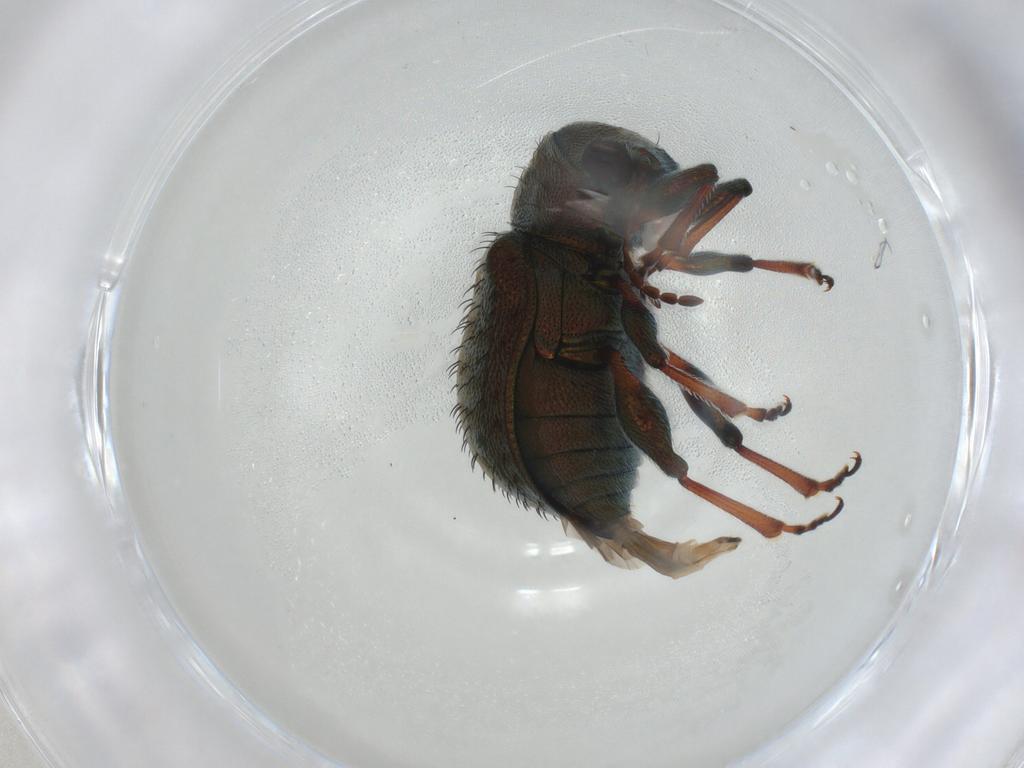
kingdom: Animalia
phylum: Arthropoda
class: Insecta
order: Coleoptera
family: Chrysomelidae
